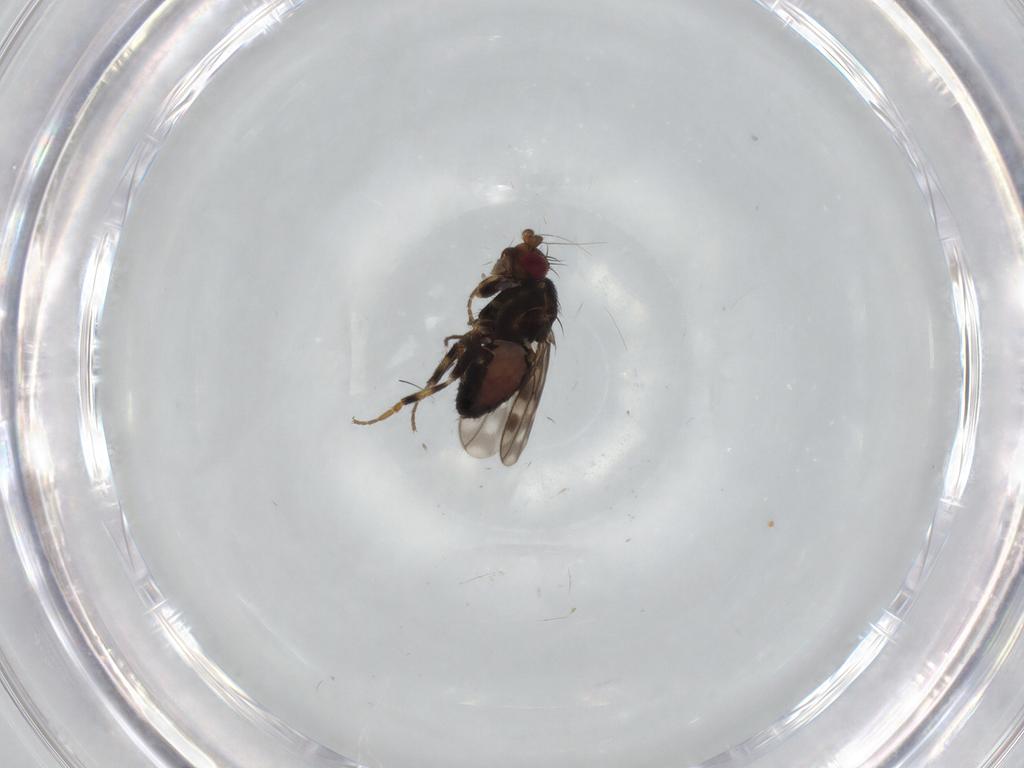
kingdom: Animalia
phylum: Arthropoda
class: Insecta
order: Diptera
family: Sphaeroceridae
